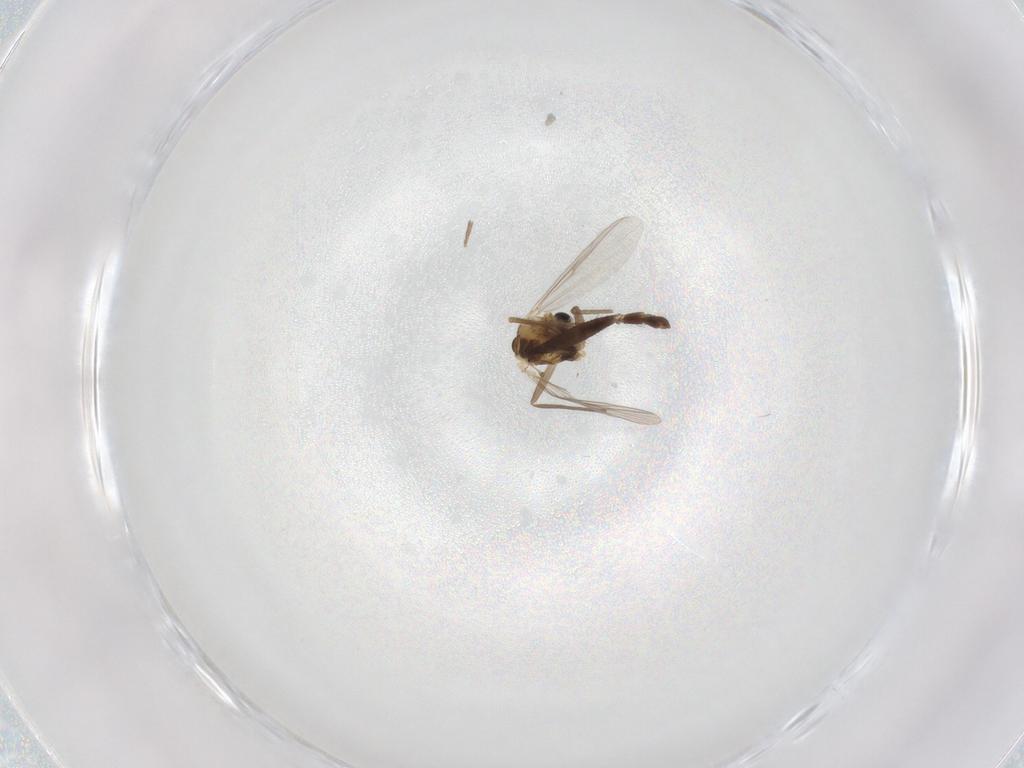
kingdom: Animalia
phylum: Arthropoda
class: Insecta
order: Diptera
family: Chironomidae
